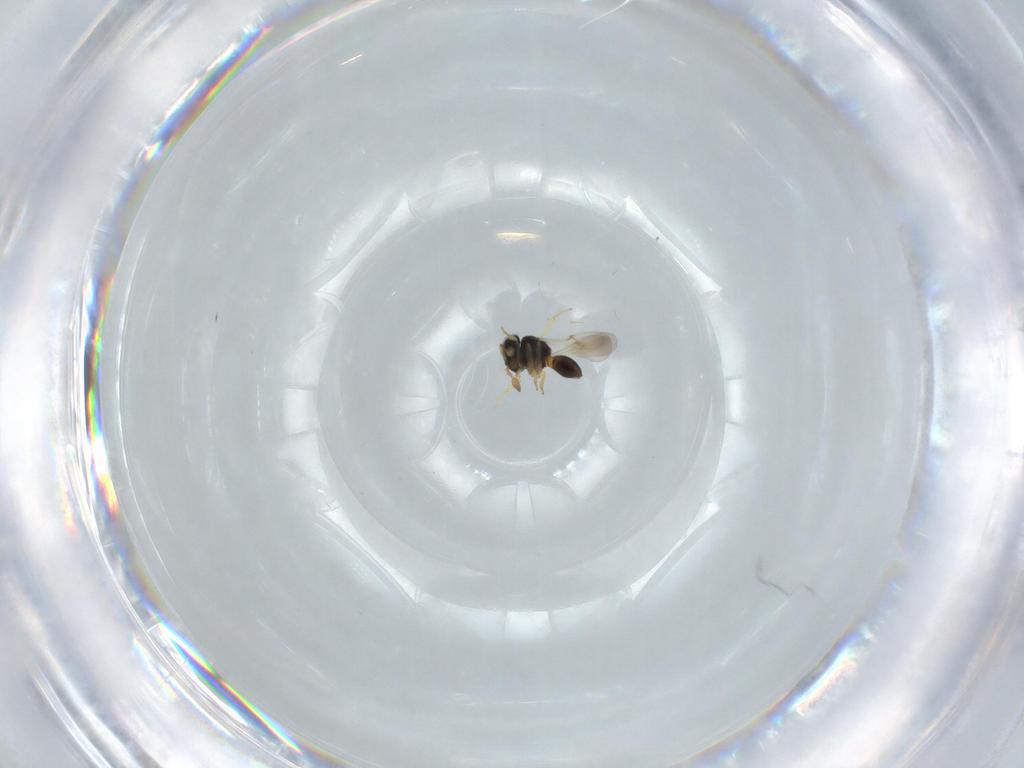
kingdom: Animalia
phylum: Arthropoda
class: Insecta
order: Hymenoptera
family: Scelionidae
